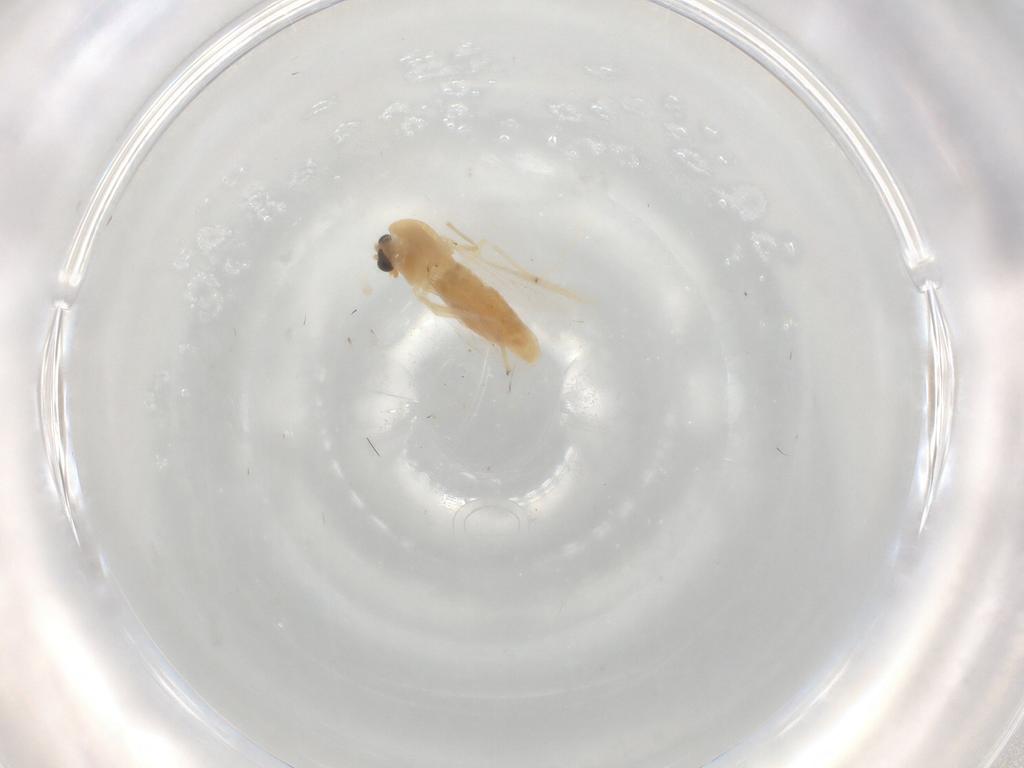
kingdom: Animalia
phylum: Arthropoda
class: Insecta
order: Diptera
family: Chironomidae
